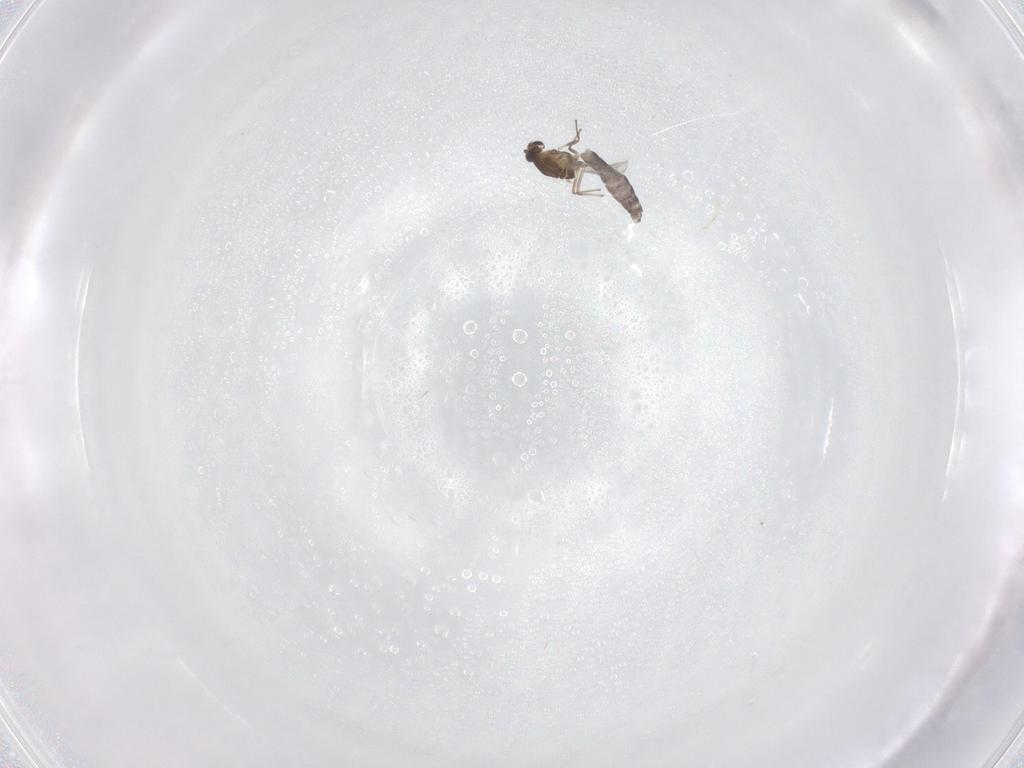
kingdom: Animalia
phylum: Arthropoda
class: Insecta
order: Diptera
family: Chironomidae
